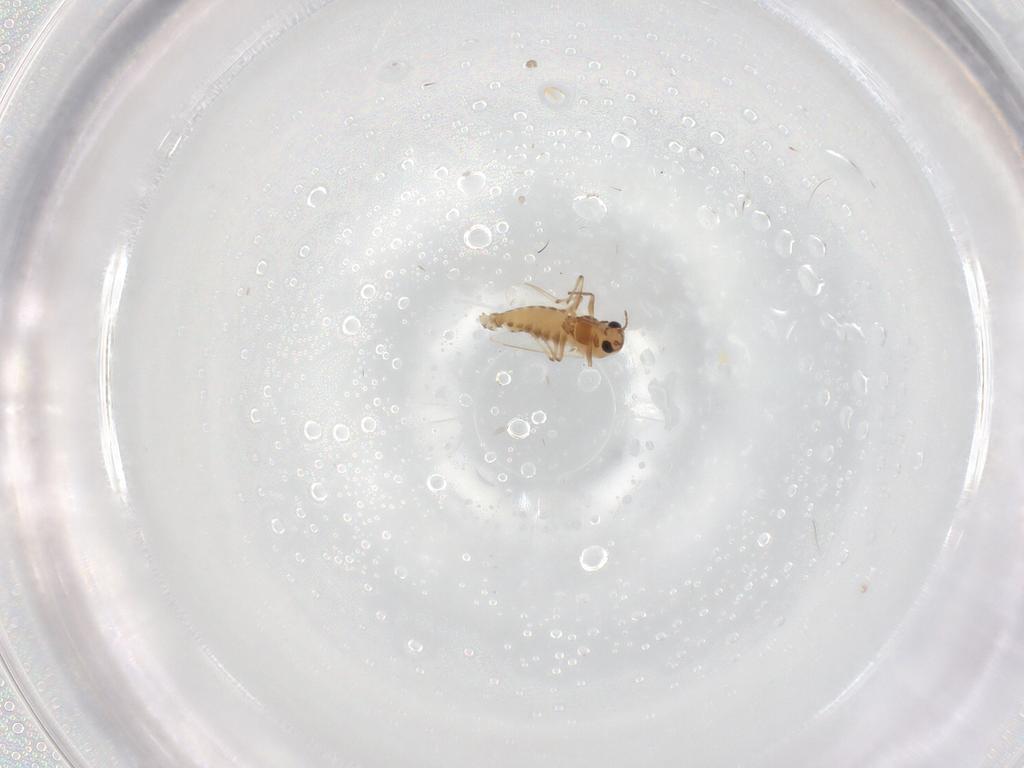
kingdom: Animalia
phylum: Arthropoda
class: Insecta
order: Diptera
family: Chironomidae
